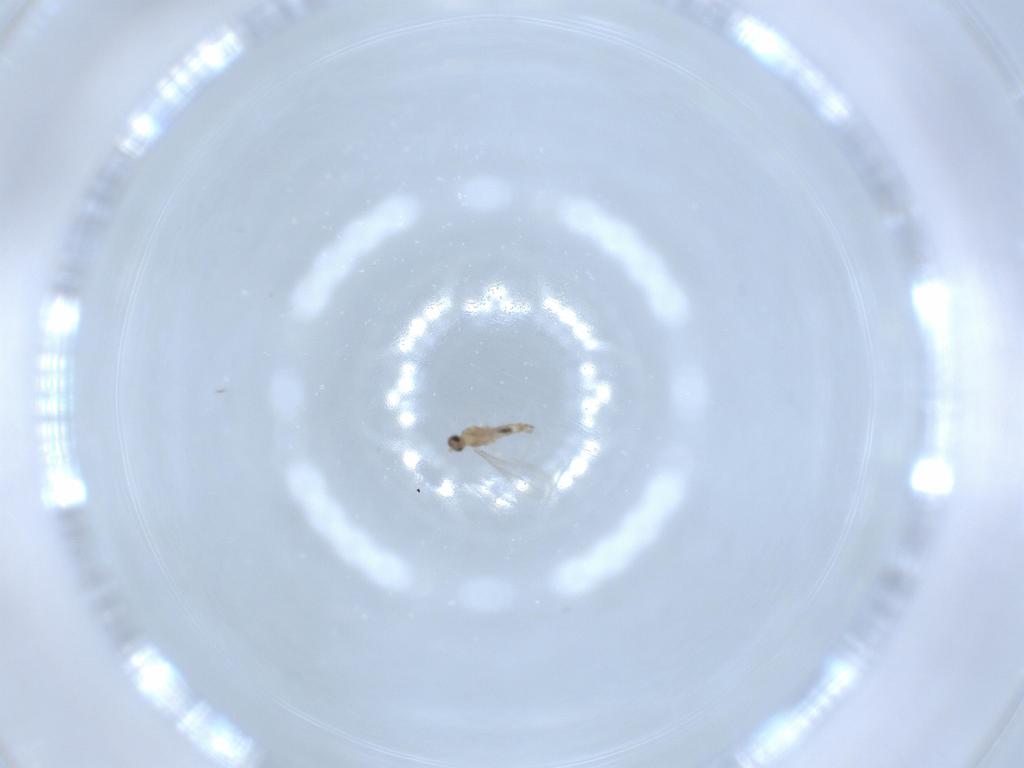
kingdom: Animalia
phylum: Arthropoda
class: Insecta
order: Diptera
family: Cecidomyiidae
